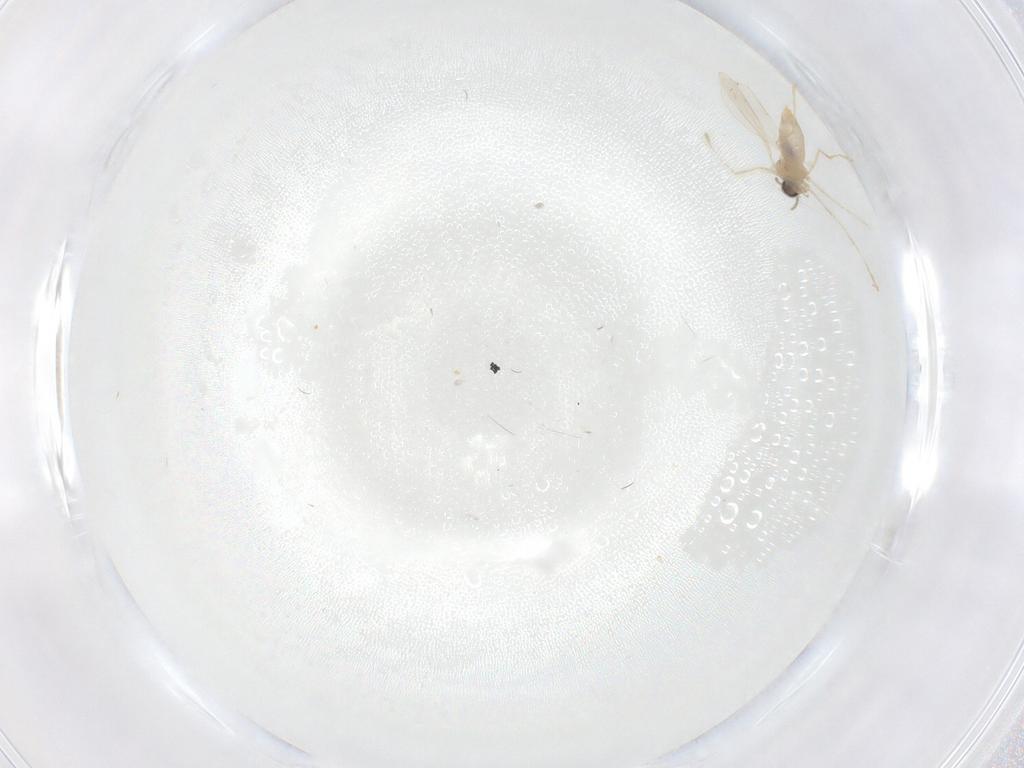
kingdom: Animalia
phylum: Arthropoda
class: Insecta
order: Diptera
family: Cecidomyiidae
